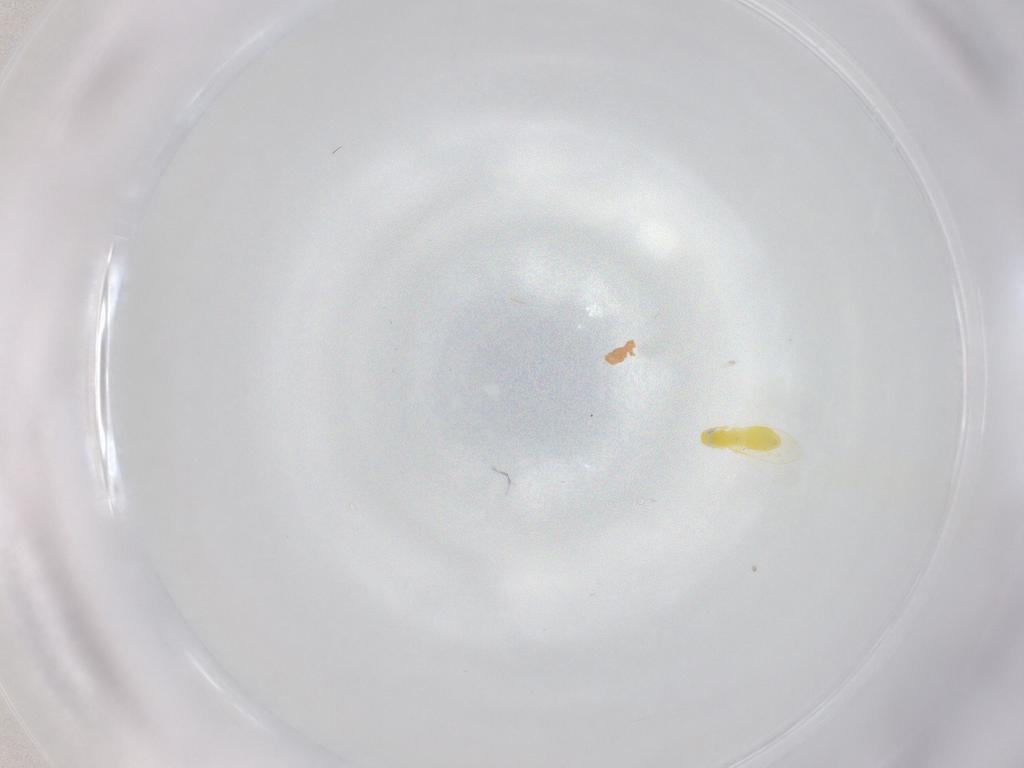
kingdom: Animalia
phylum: Arthropoda
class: Insecta
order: Hemiptera
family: Aleyrodidae
